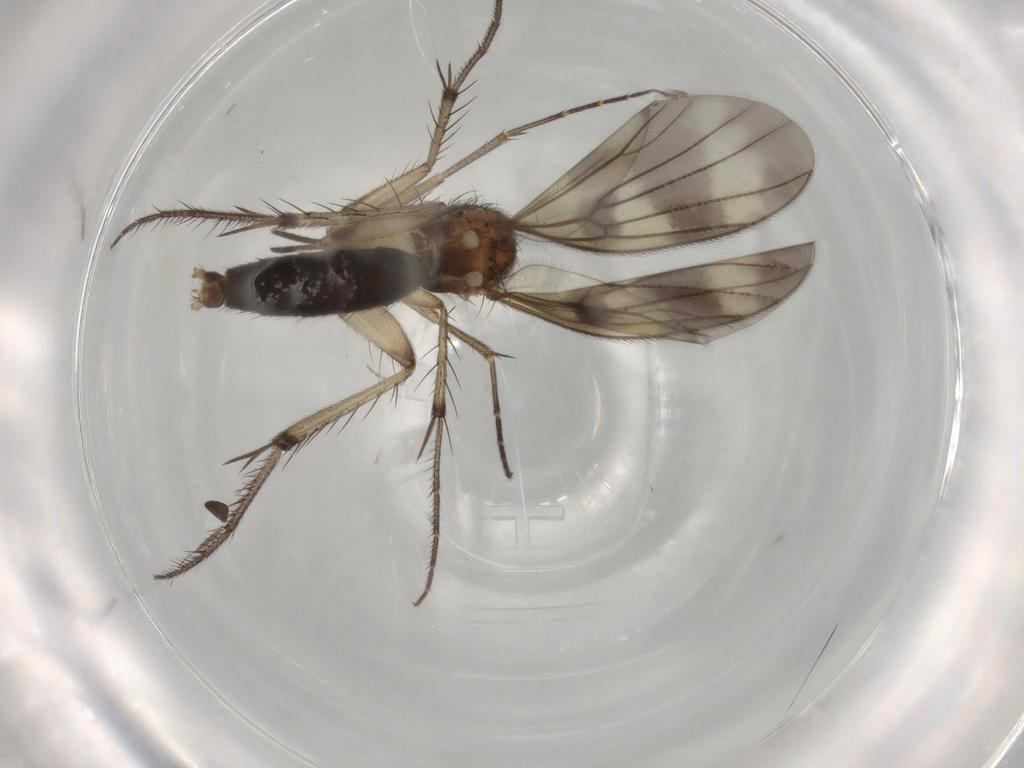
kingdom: Animalia
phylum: Arthropoda
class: Insecta
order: Diptera
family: Mycetophilidae
